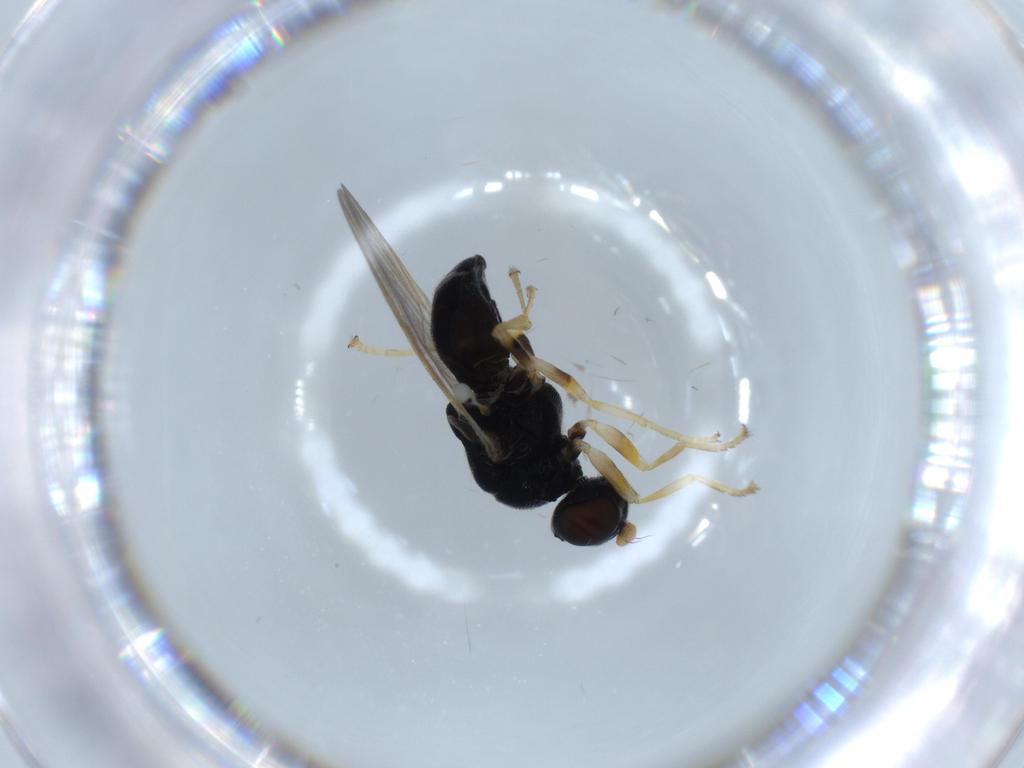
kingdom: Animalia
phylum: Arthropoda
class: Insecta
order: Diptera
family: Stratiomyidae
